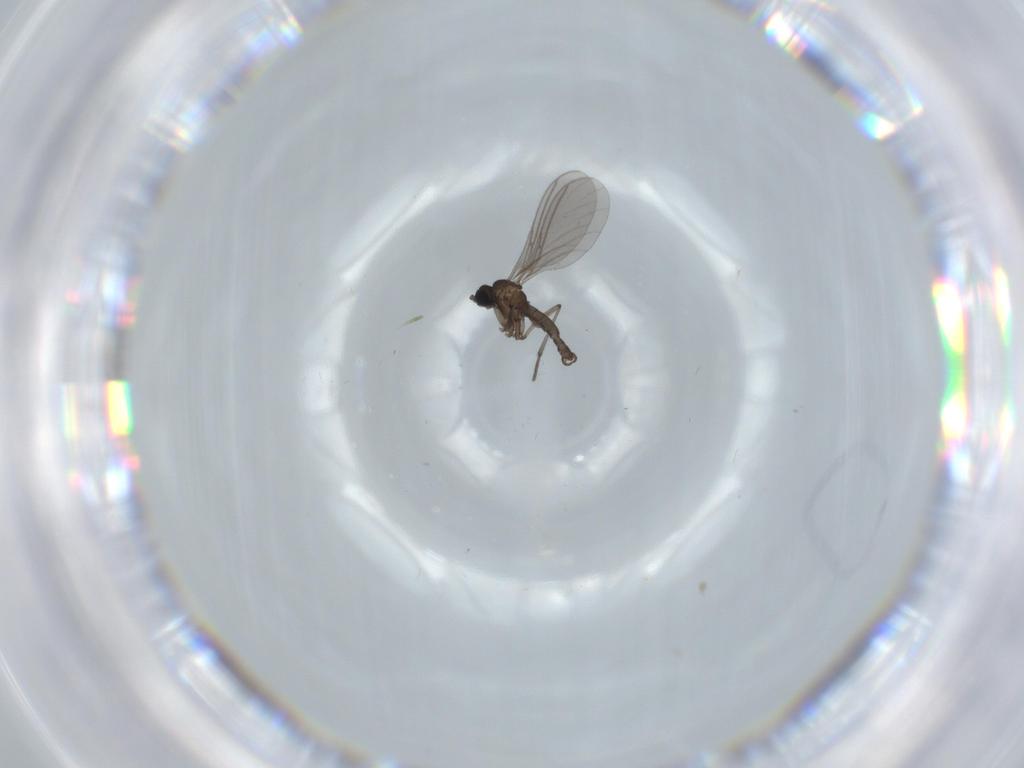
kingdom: Animalia
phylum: Arthropoda
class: Insecta
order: Diptera
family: Sciaridae
